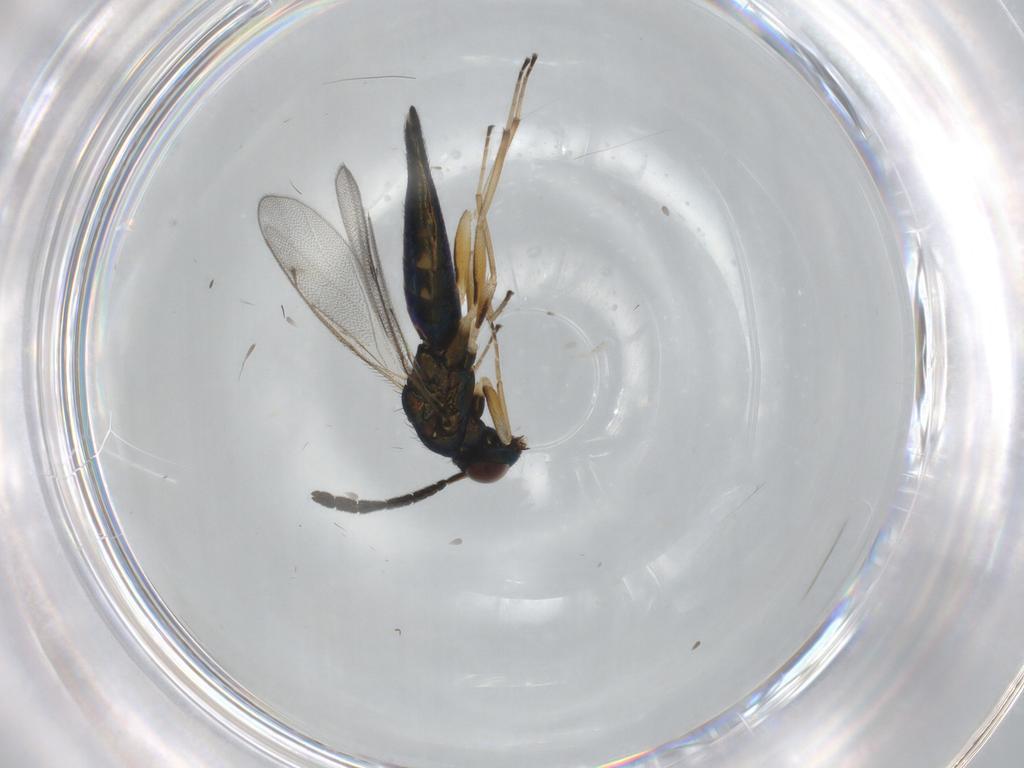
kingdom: Animalia
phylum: Arthropoda
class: Insecta
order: Hymenoptera
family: Eulophidae
